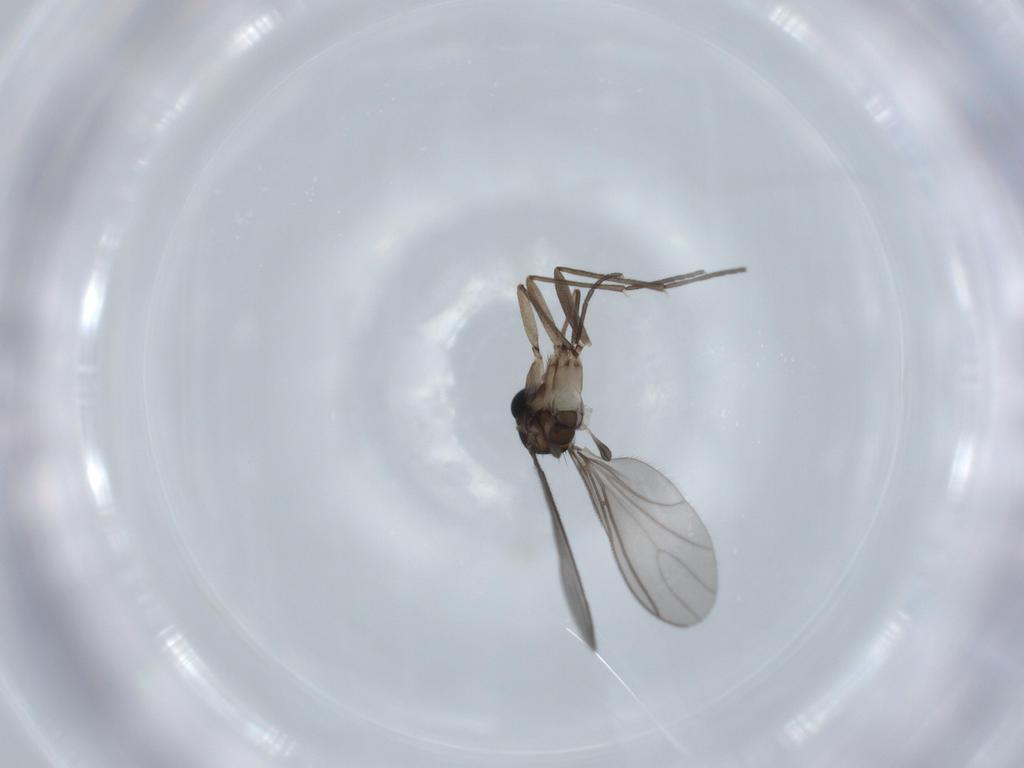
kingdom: Animalia
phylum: Arthropoda
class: Insecta
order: Diptera
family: Sciaridae
